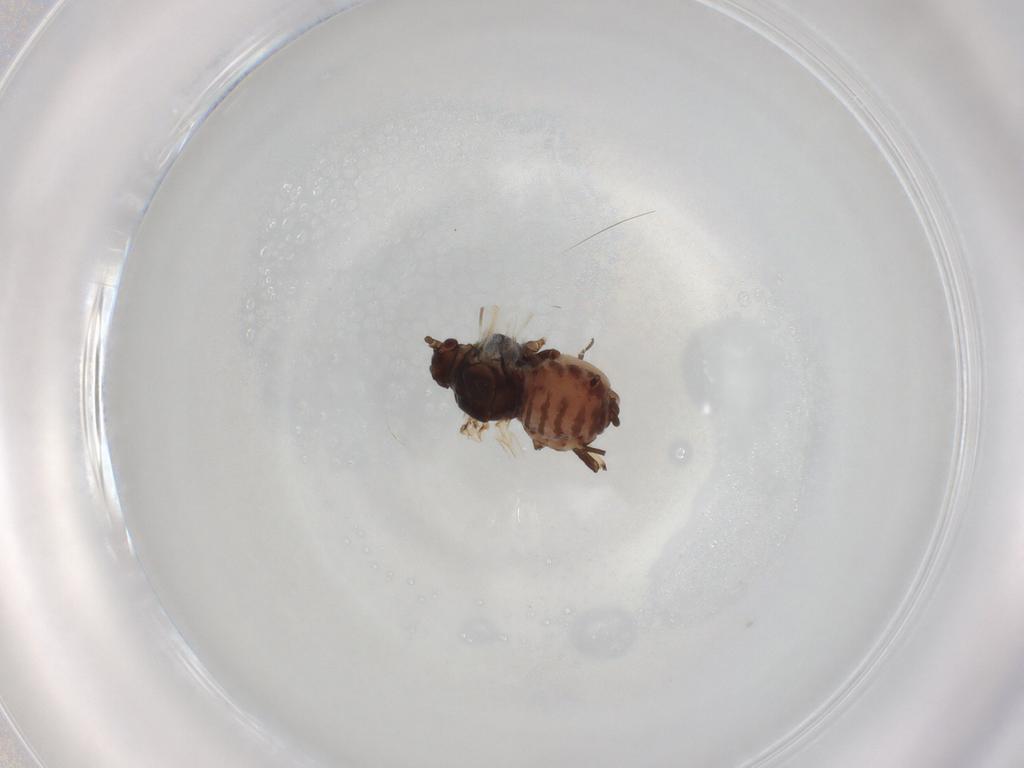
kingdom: Animalia
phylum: Arthropoda
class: Insecta
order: Hemiptera
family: Aphididae
